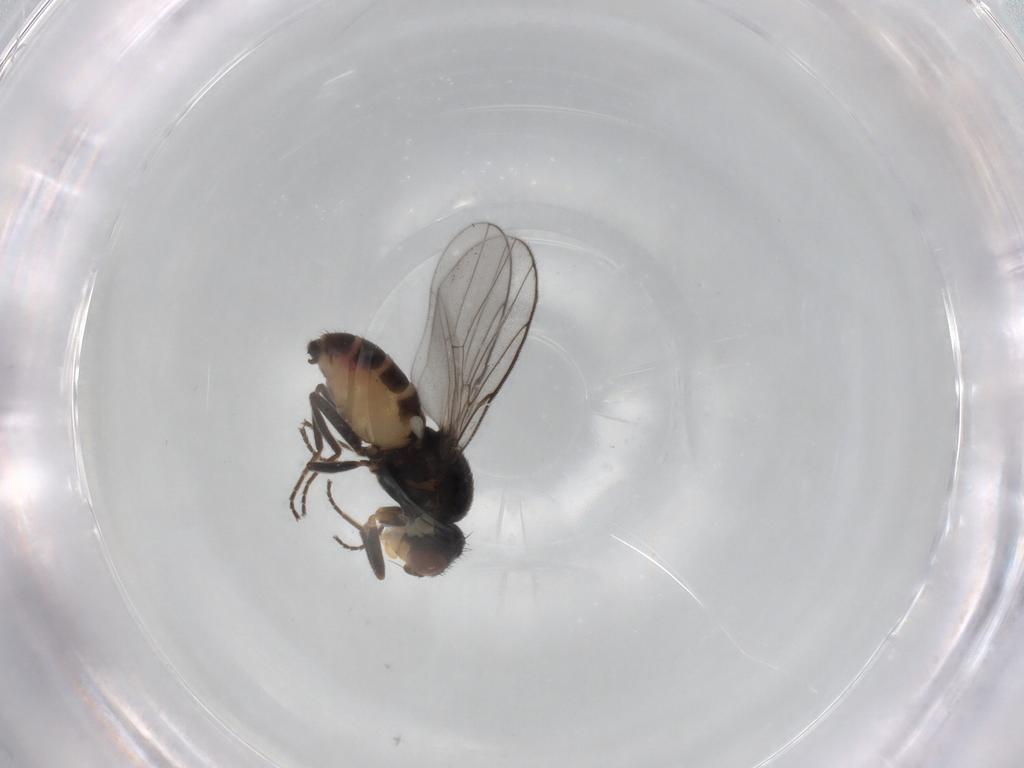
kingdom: Animalia
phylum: Arthropoda
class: Insecta
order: Diptera
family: Chloropidae
